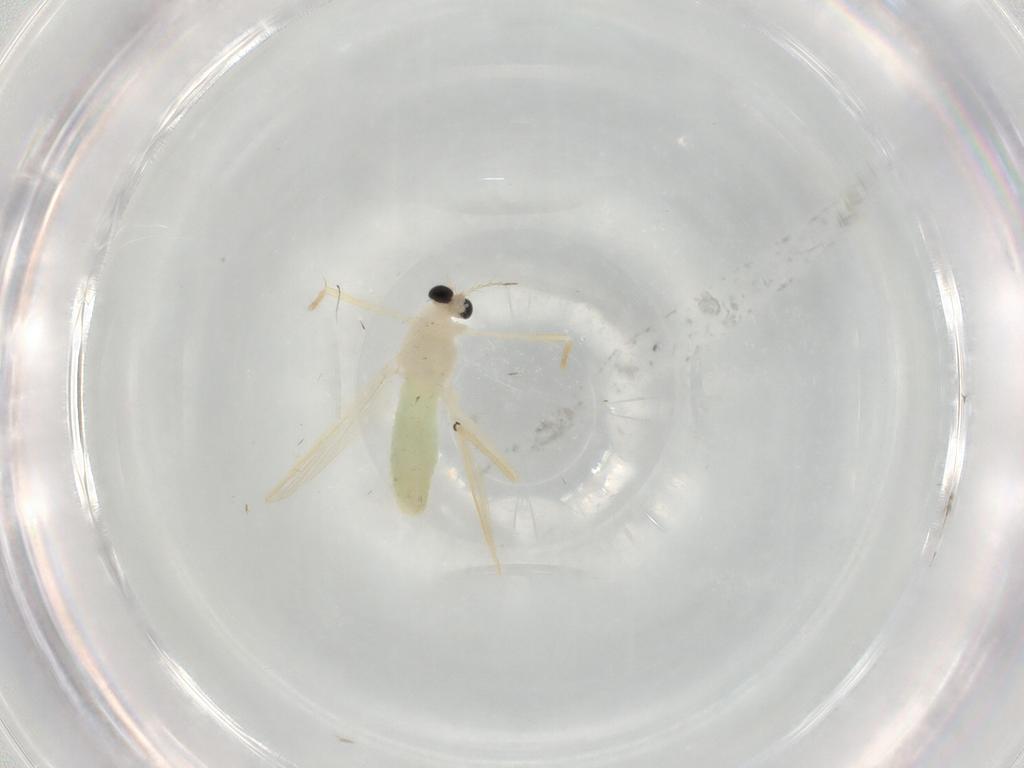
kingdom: Animalia
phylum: Arthropoda
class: Insecta
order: Diptera
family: Chironomidae
